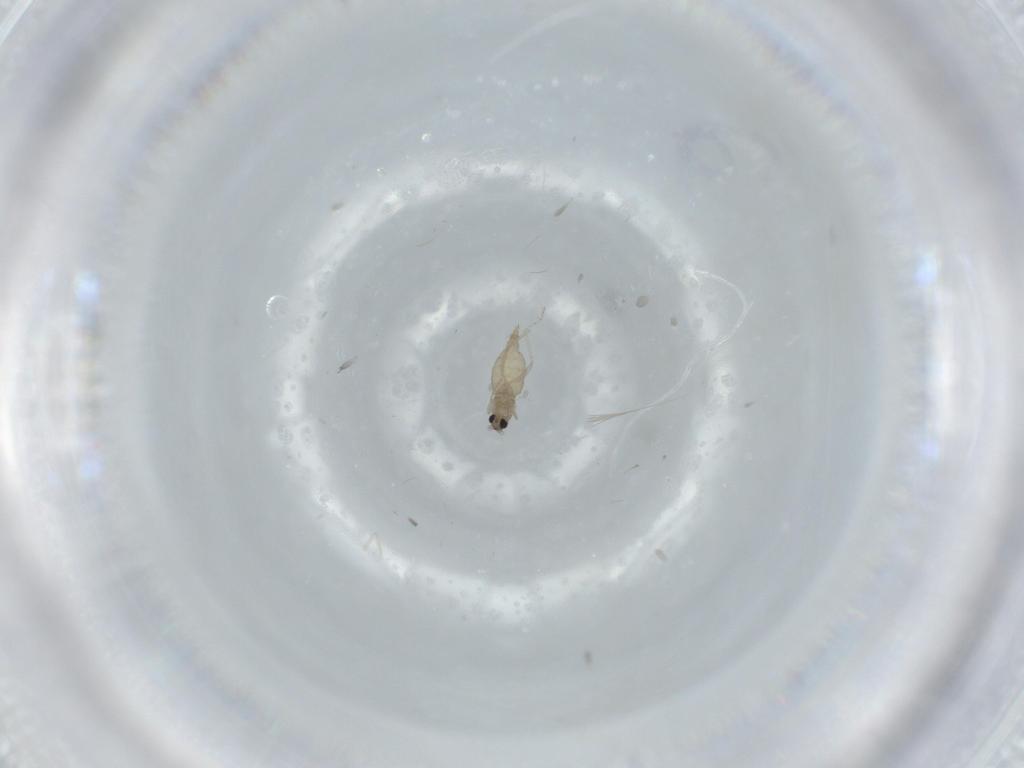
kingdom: Animalia
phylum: Arthropoda
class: Insecta
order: Diptera
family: Cecidomyiidae
